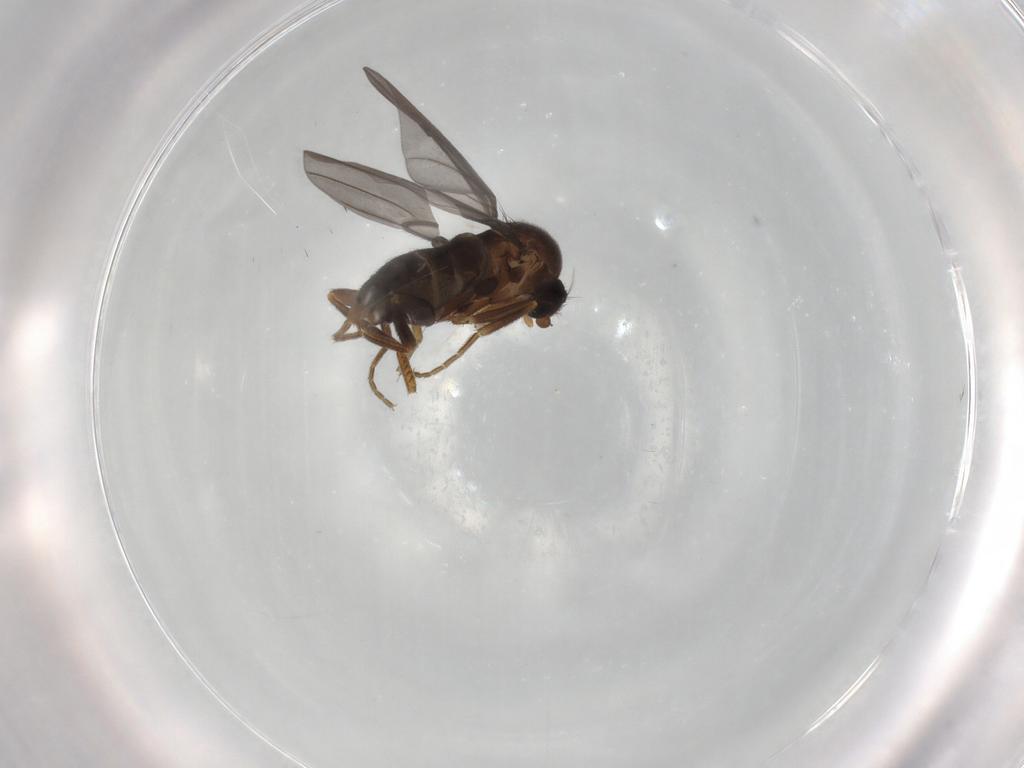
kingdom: Animalia
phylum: Arthropoda
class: Insecta
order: Diptera
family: Phoridae
